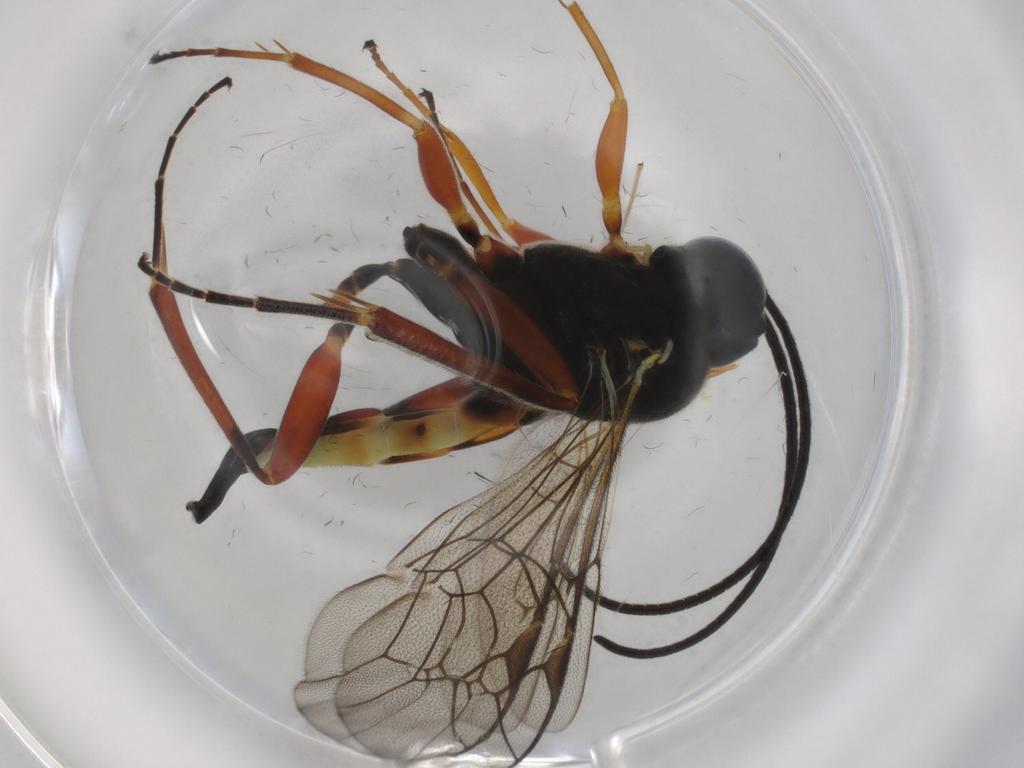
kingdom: Animalia
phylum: Arthropoda
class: Insecta
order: Hymenoptera
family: Ichneumonidae
